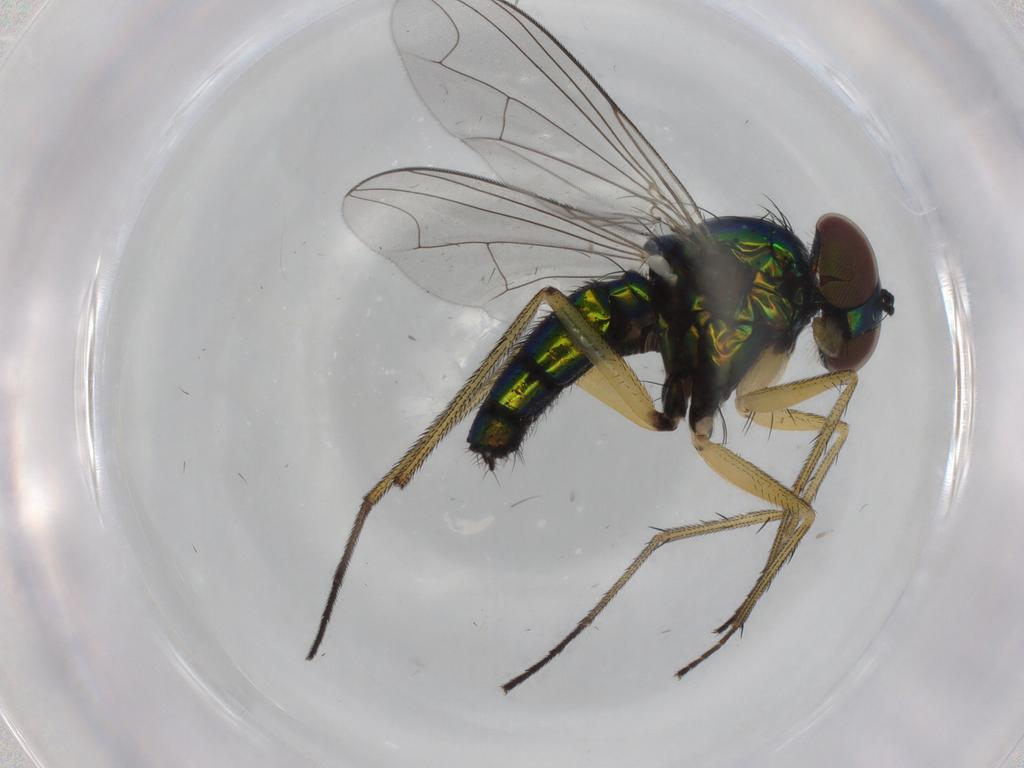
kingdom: Animalia
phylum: Arthropoda
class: Insecta
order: Diptera
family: Dolichopodidae
